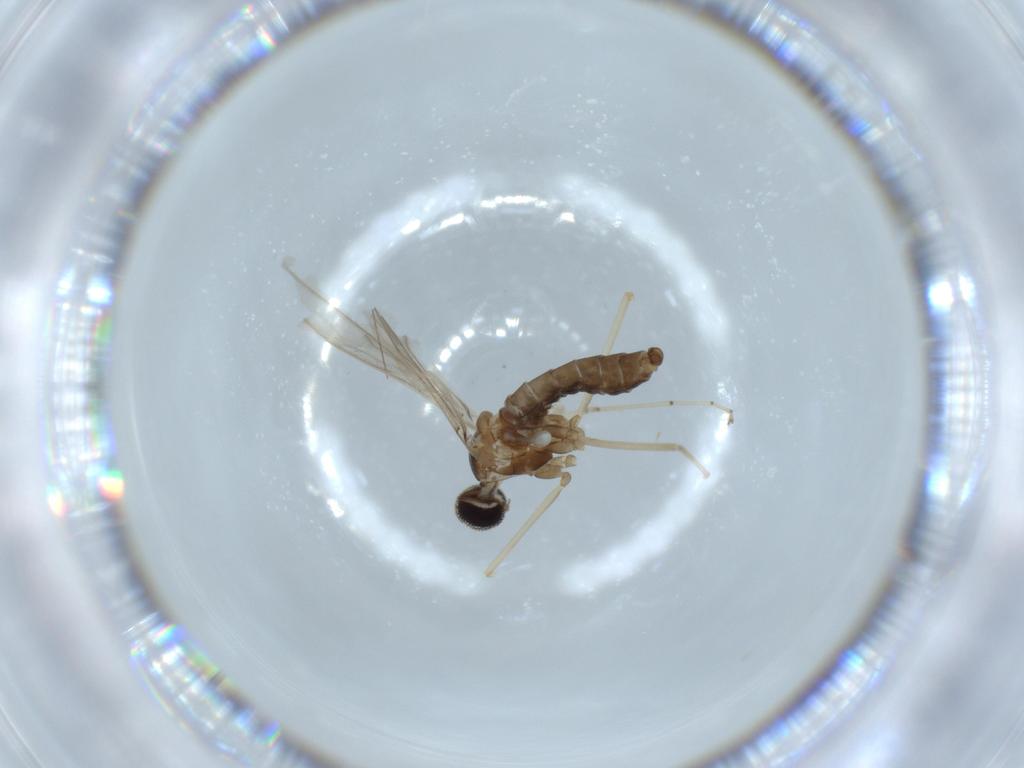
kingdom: Animalia
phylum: Arthropoda
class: Insecta
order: Diptera
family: Cecidomyiidae
